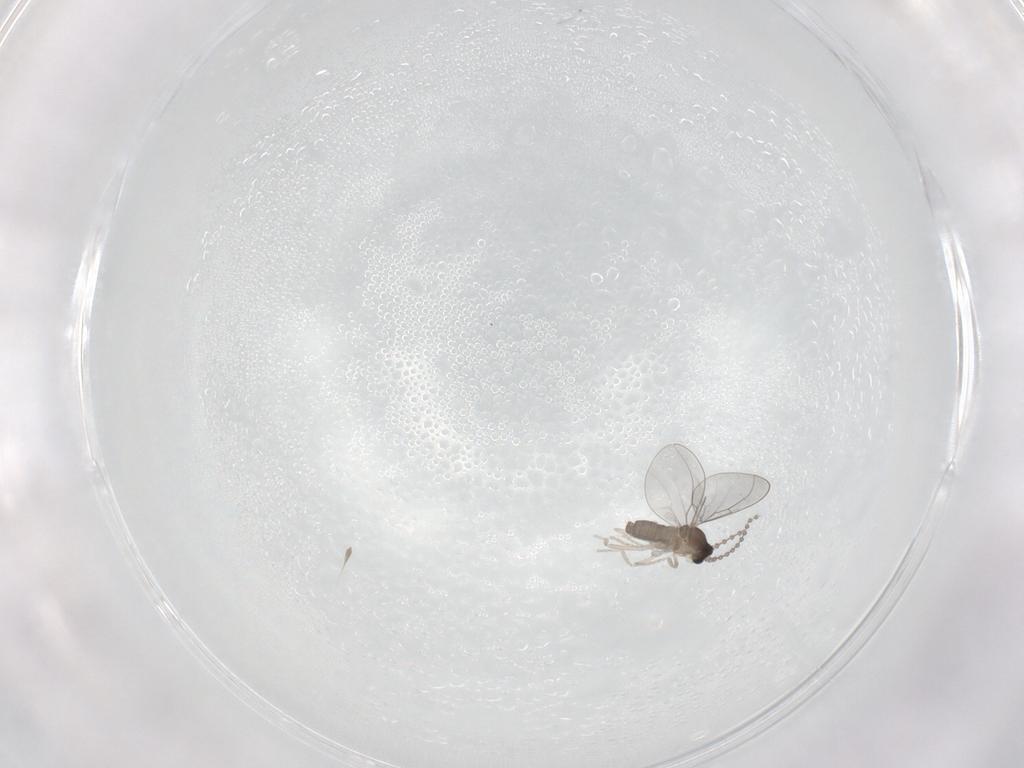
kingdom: Animalia
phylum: Arthropoda
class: Insecta
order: Diptera
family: Cecidomyiidae
